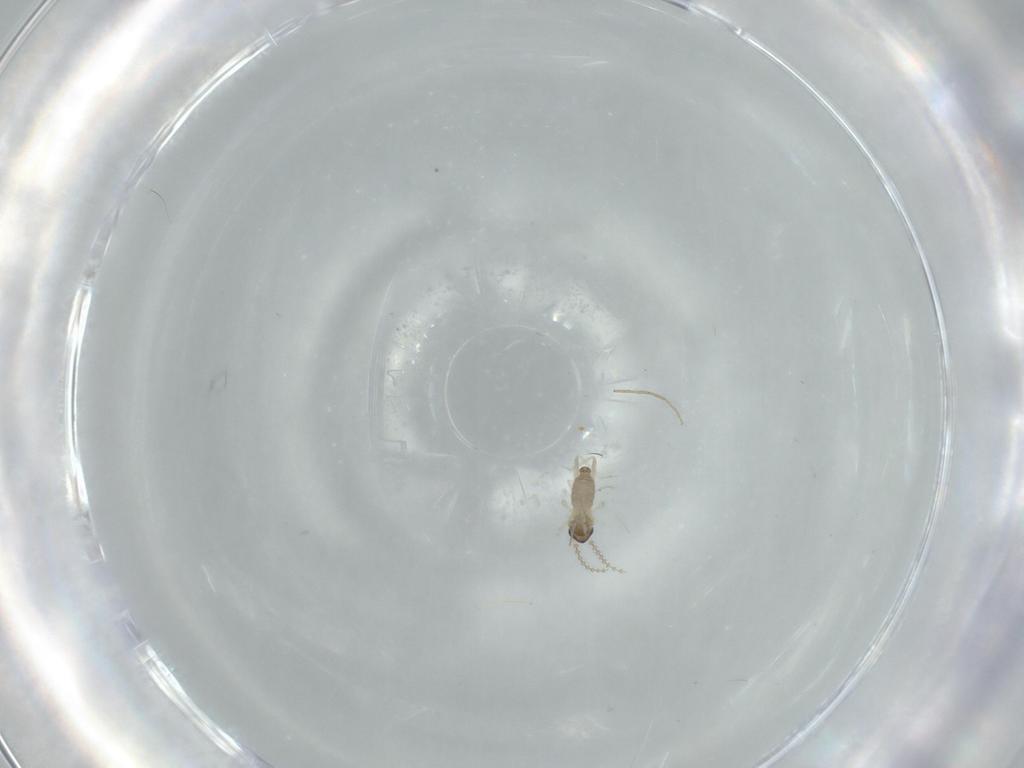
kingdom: Animalia
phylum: Arthropoda
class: Insecta
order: Diptera
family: Cecidomyiidae
